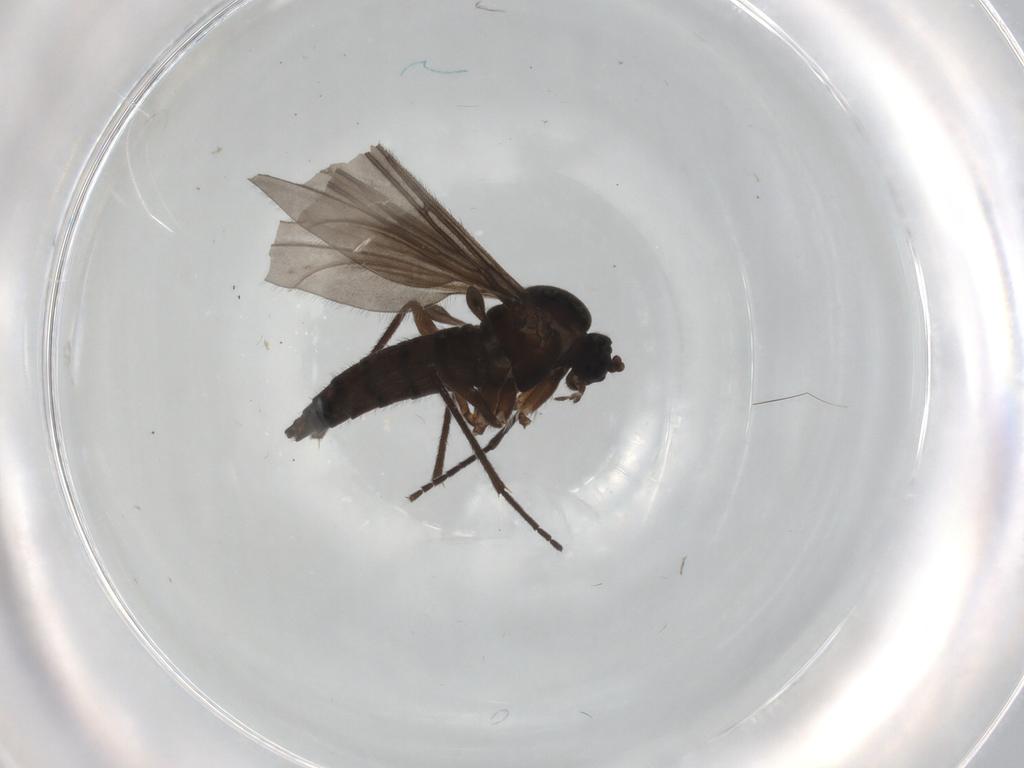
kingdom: Animalia
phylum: Arthropoda
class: Insecta
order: Diptera
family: Sciaridae
